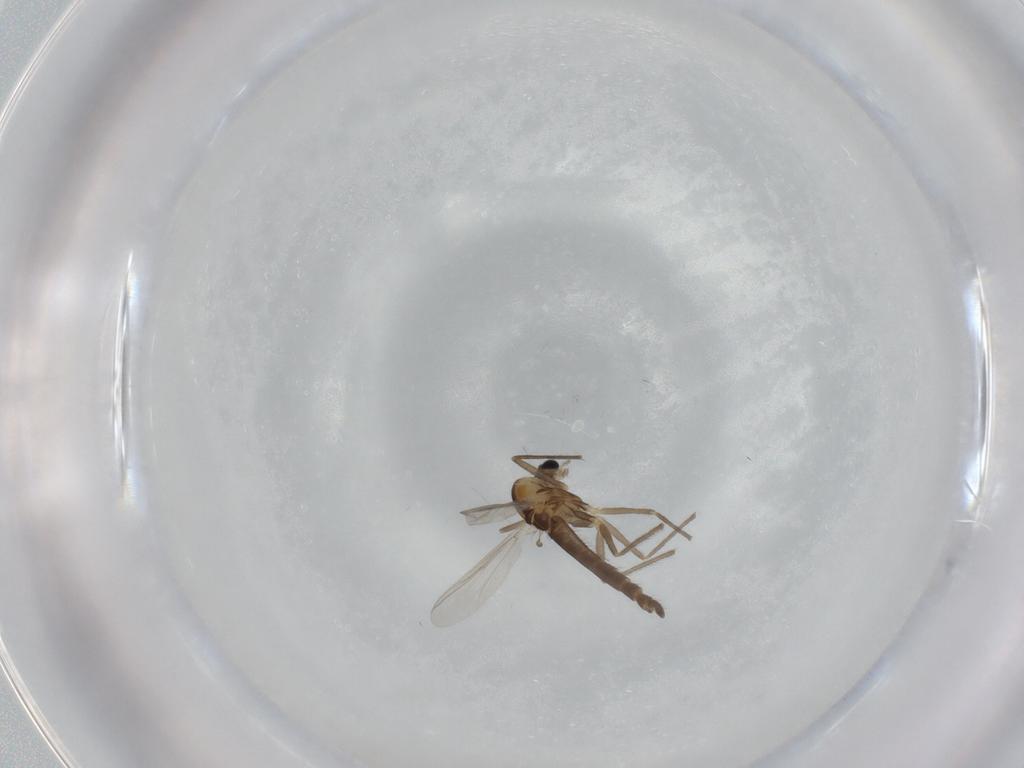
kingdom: Animalia
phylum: Arthropoda
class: Insecta
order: Diptera
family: Chironomidae
